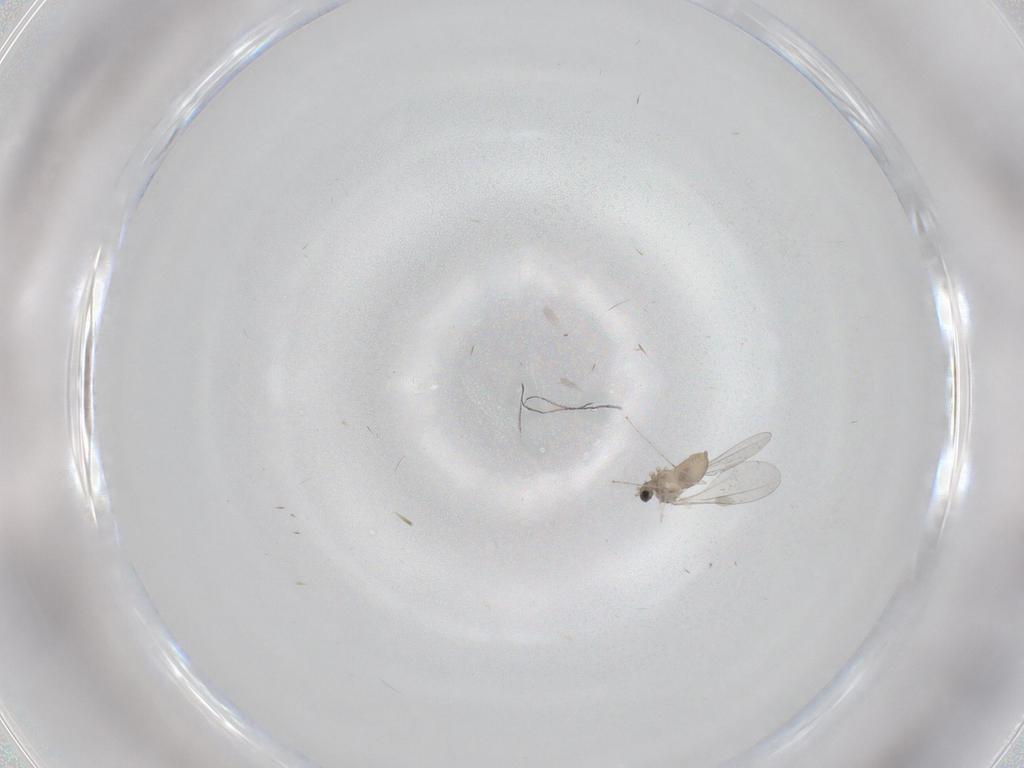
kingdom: Animalia
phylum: Arthropoda
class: Insecta
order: Diptera
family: Cecidomyiidae
